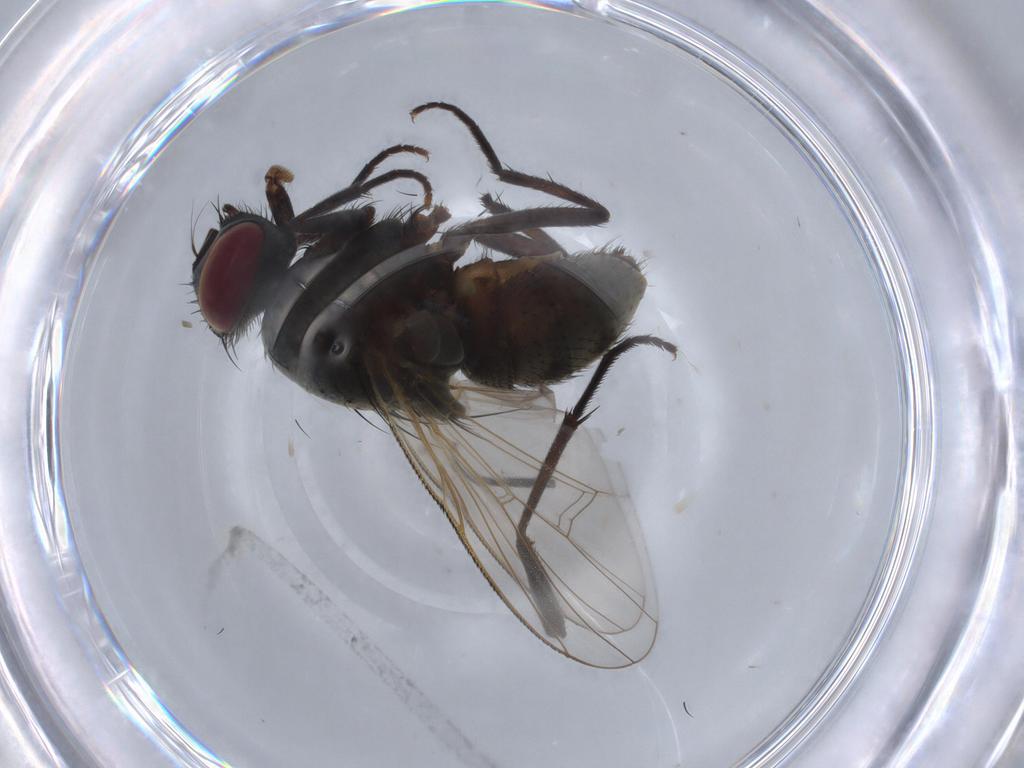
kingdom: Animalia
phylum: Arthropoda
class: Insecta
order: Diptera
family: Muscidae
